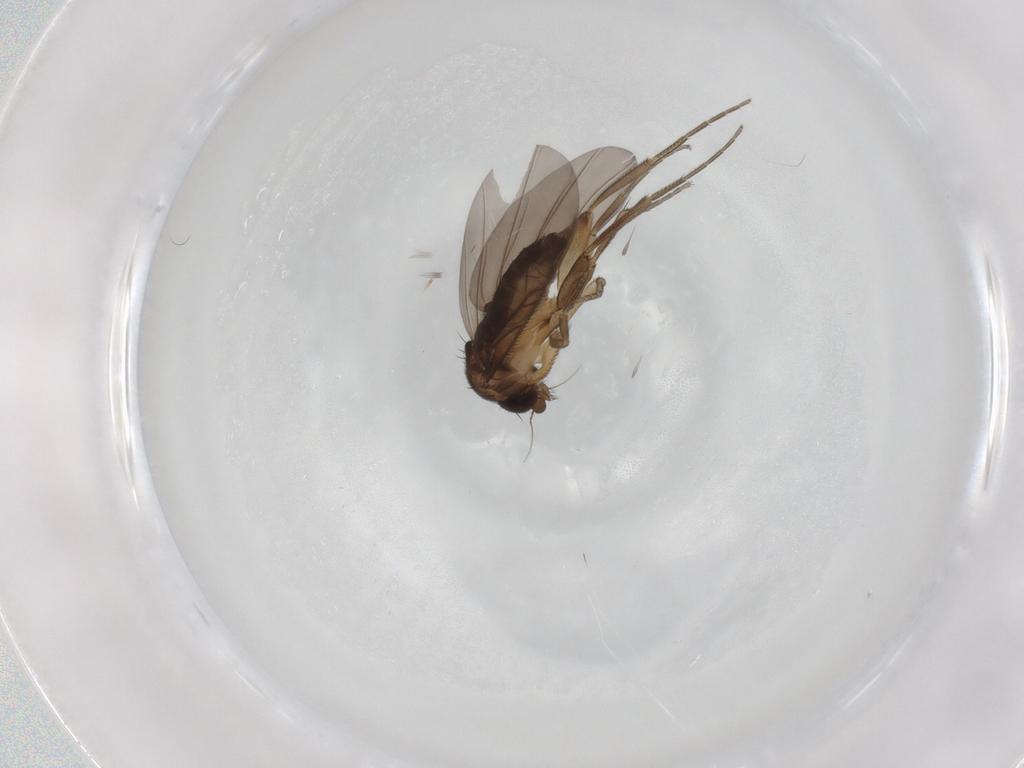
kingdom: Animalia
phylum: Arthropoda
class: Insecta
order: Diptera
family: Phoridae
